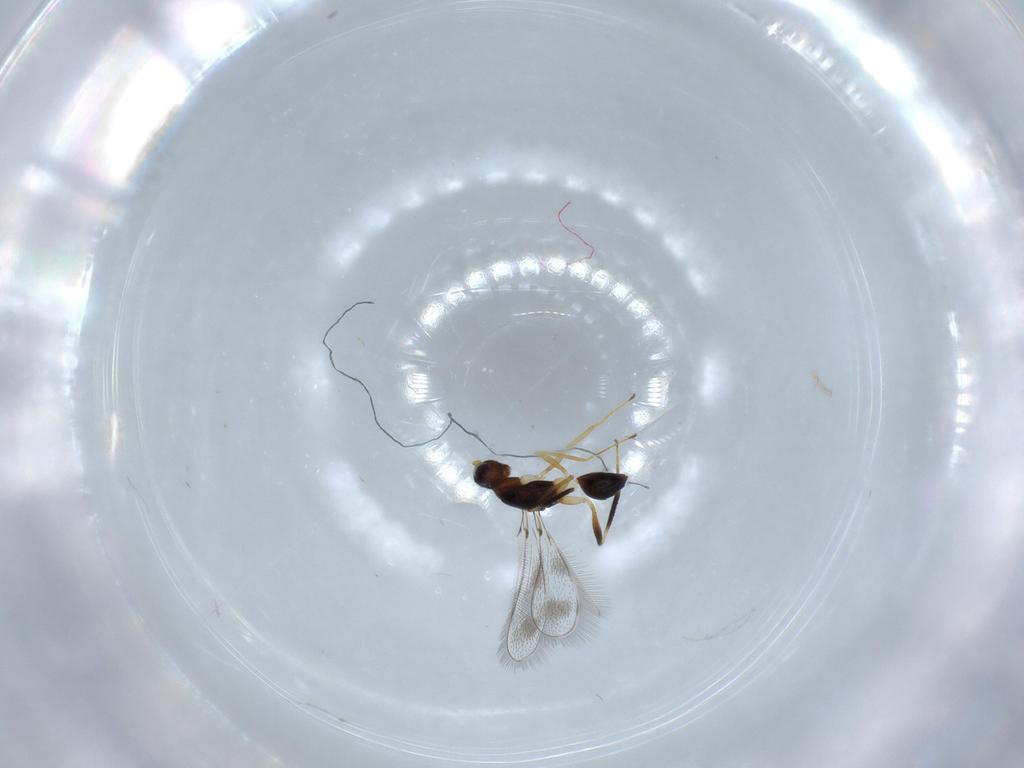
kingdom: Animalia
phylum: Arthropoda
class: Insecta
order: Hymenoptera
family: Mymaridae
